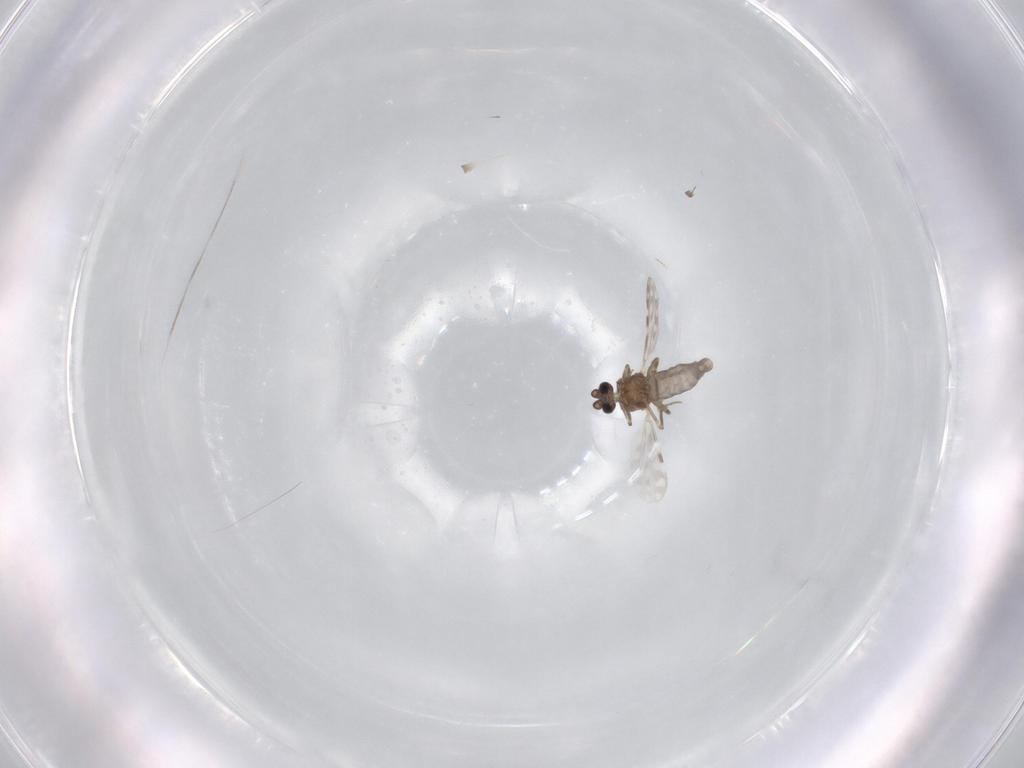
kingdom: Animalia
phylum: Arthropoda
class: Insecta
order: Diptera
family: Ceratopogonidae
